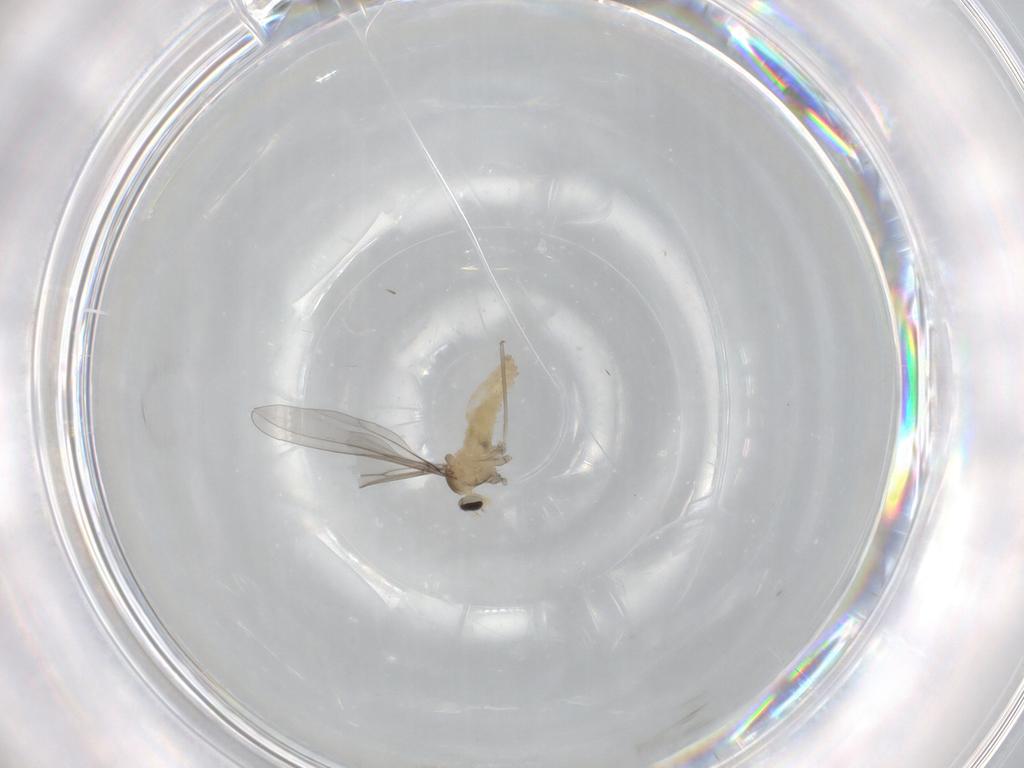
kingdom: Animalia
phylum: Arthropoda
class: Insecta
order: Diptera
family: Cecidomyiidae
